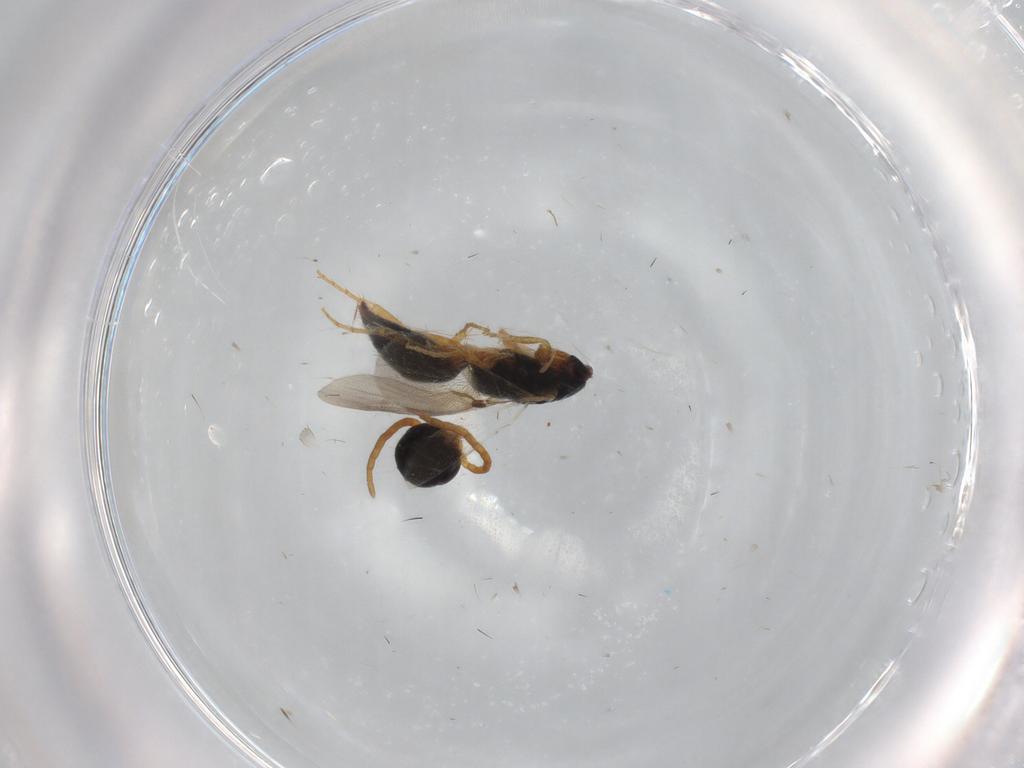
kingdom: Animalia
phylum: Arthropoda
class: Insecta
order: Hymenoptera
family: Bethylidae
